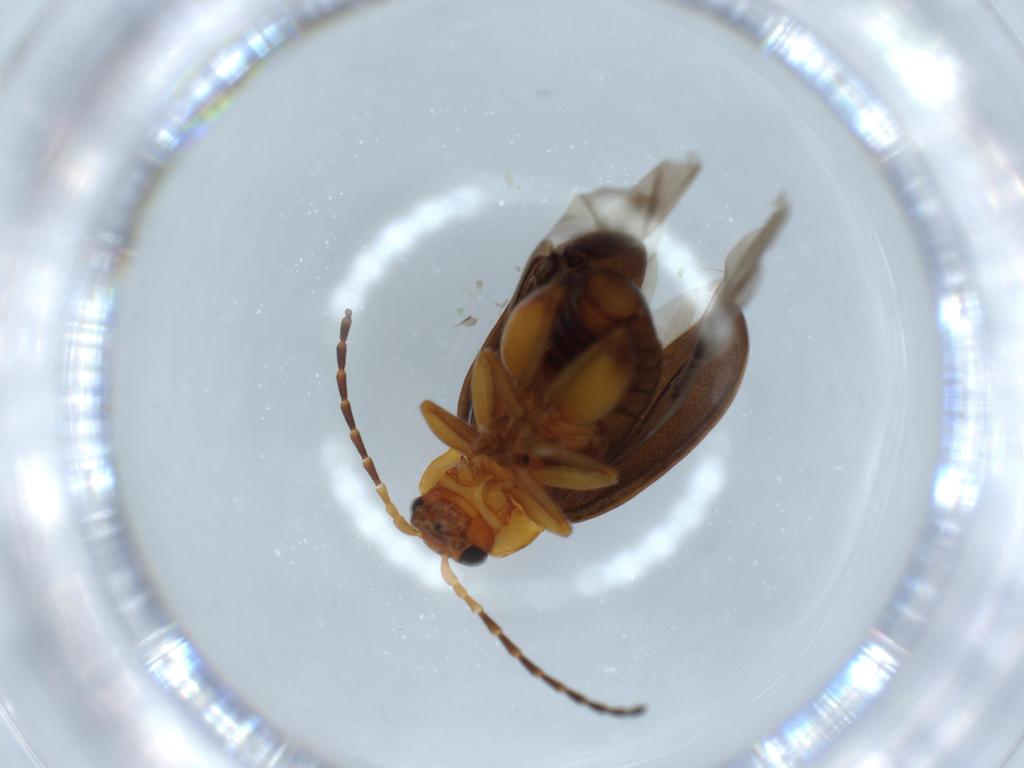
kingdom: Animalia
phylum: Arthropoda
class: Insecta
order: Coleoptera
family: Chrysomelidae
